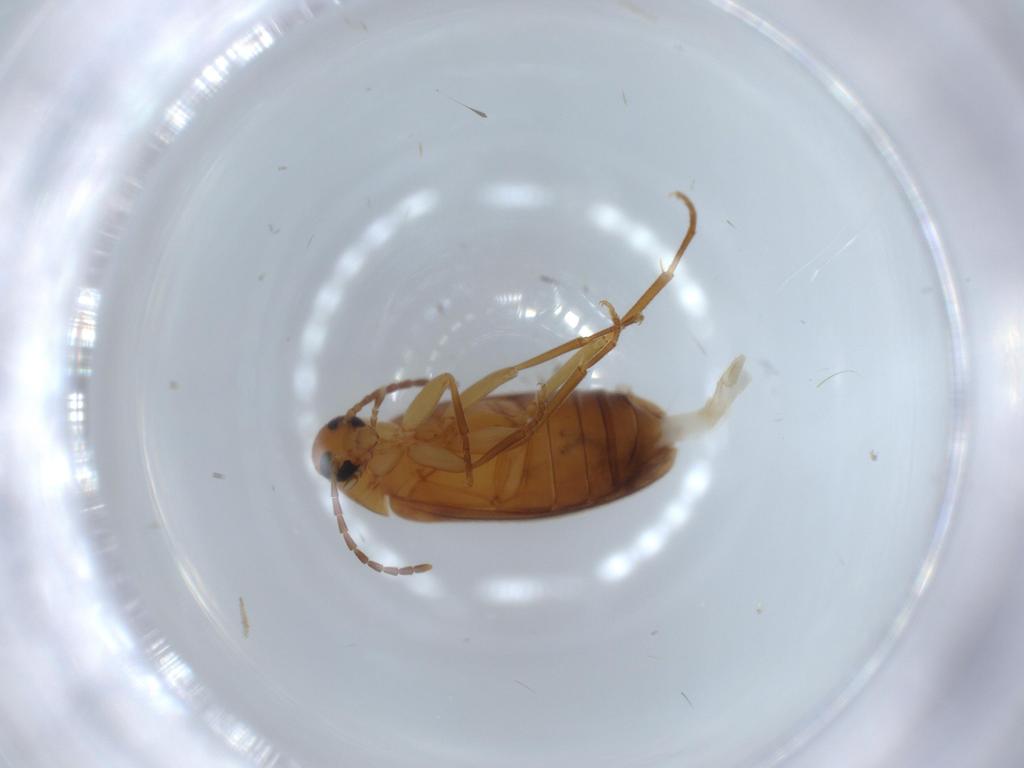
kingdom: Animalia
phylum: Arthropoda
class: Insecta
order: Coleoptera
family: Scraptiidae
